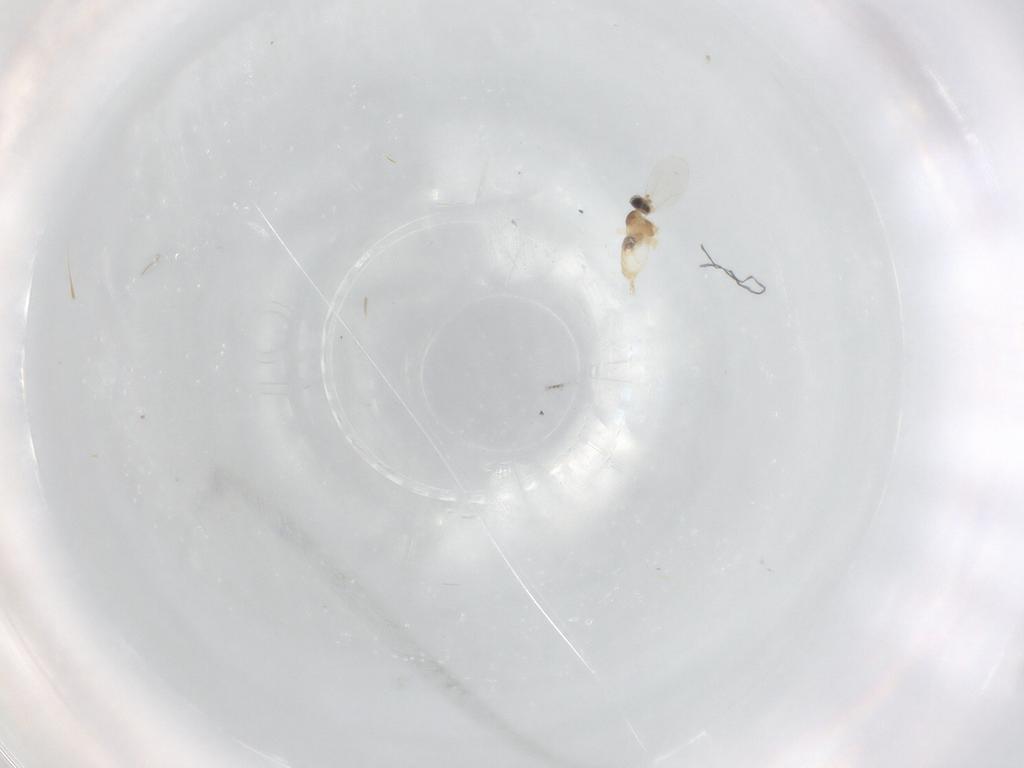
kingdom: Animalia
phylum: Arthropoda
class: Insecta
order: Diptera
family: Cecidomyiidae
